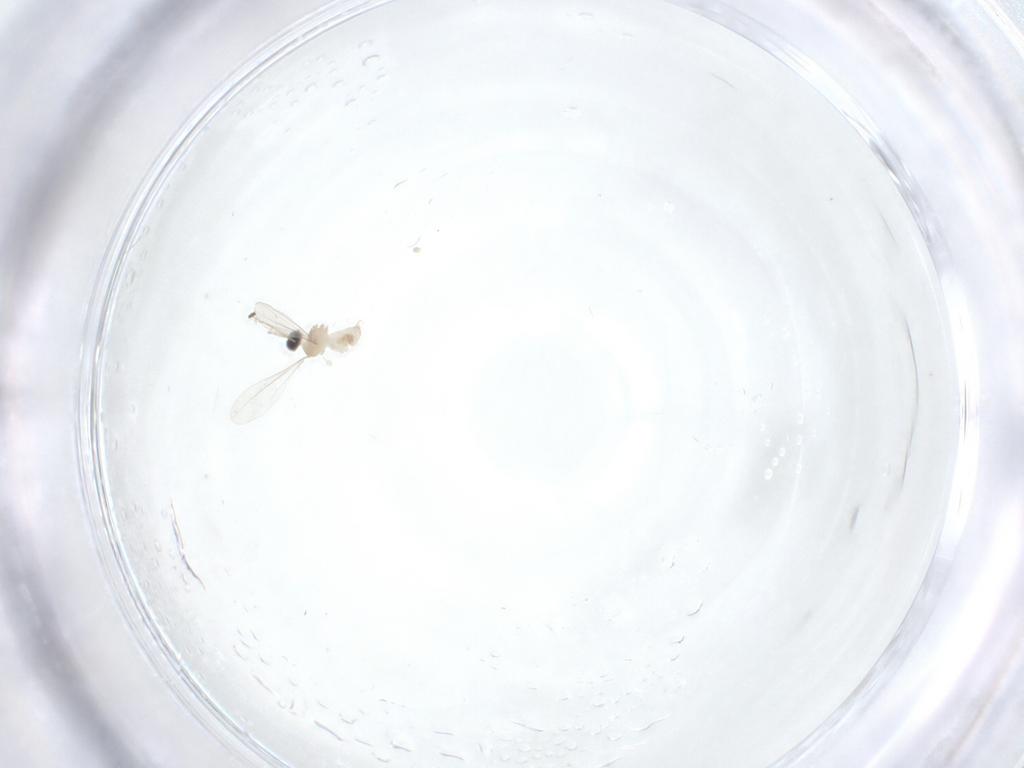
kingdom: Animalia
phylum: Arthropoda
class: Insecta
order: Diptera
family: Cecidomyiidae
